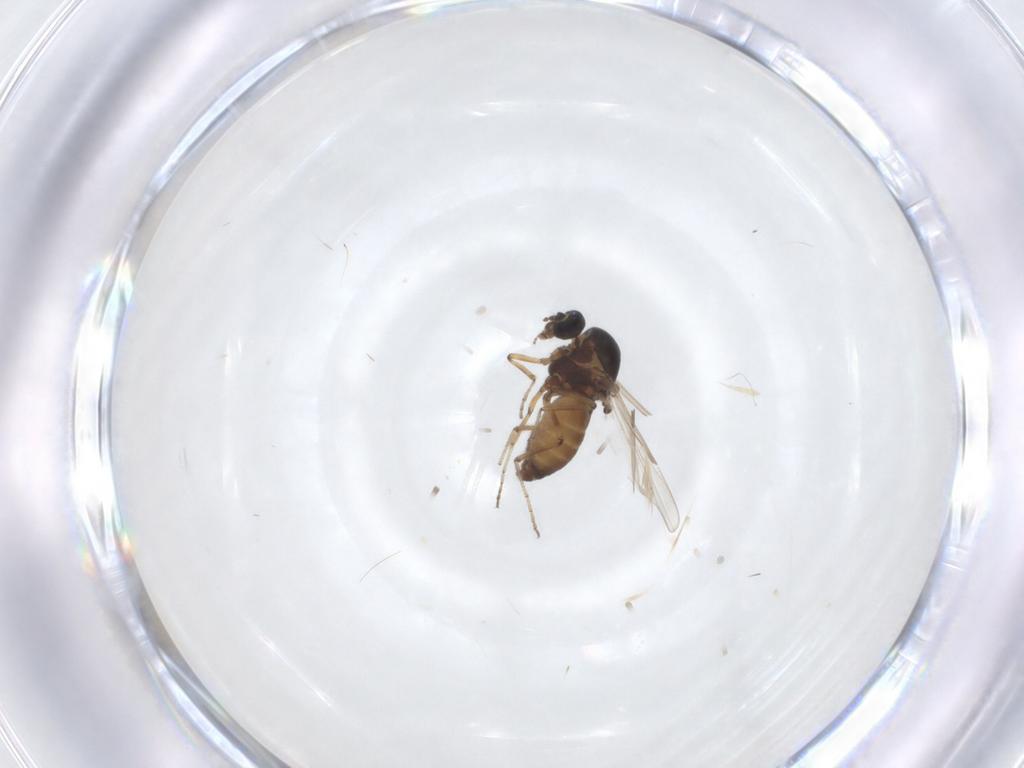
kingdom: Animalia
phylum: Arthropoda
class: Insecta
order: Diptera
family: Ceratopogonidae
